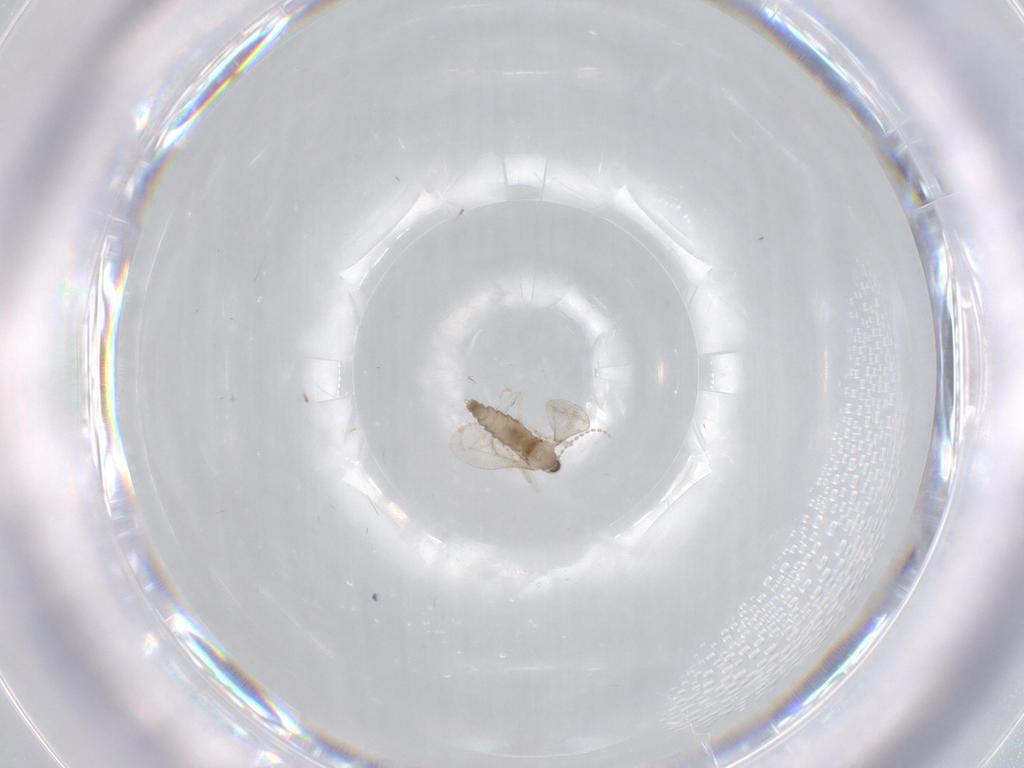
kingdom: Animalia
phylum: Arthropoda
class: Insecta
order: Diptera
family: Cecidomyiidae
